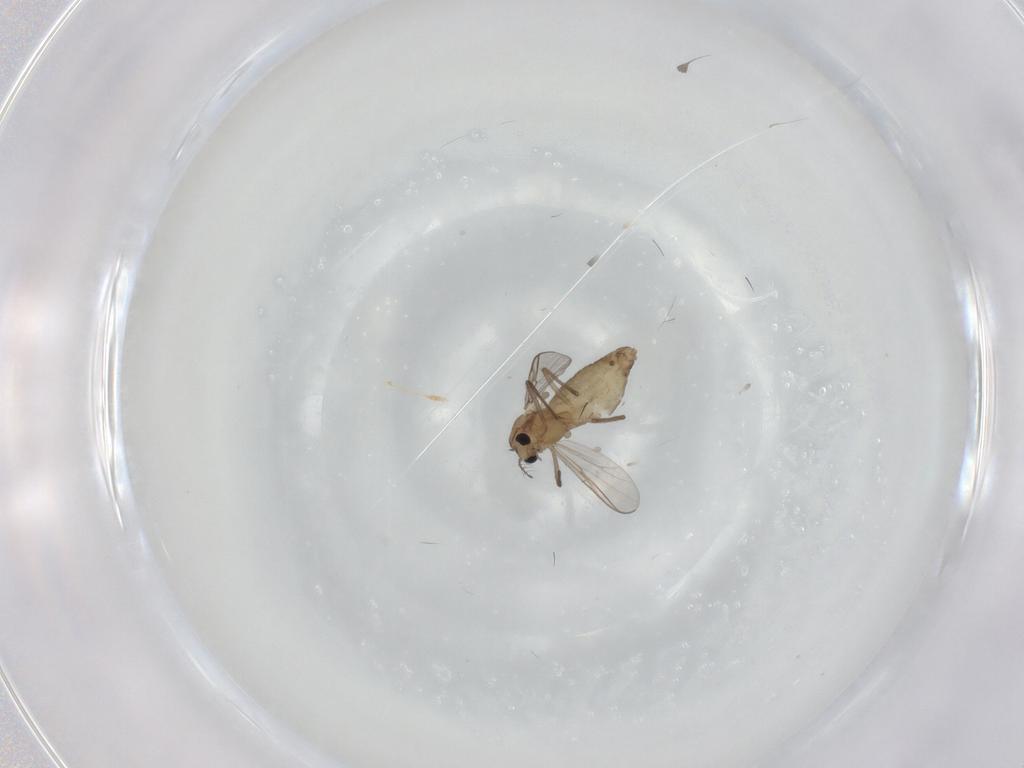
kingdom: Animalia
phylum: Arthropoda
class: Insecta
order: Diptera
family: Chironomidae
